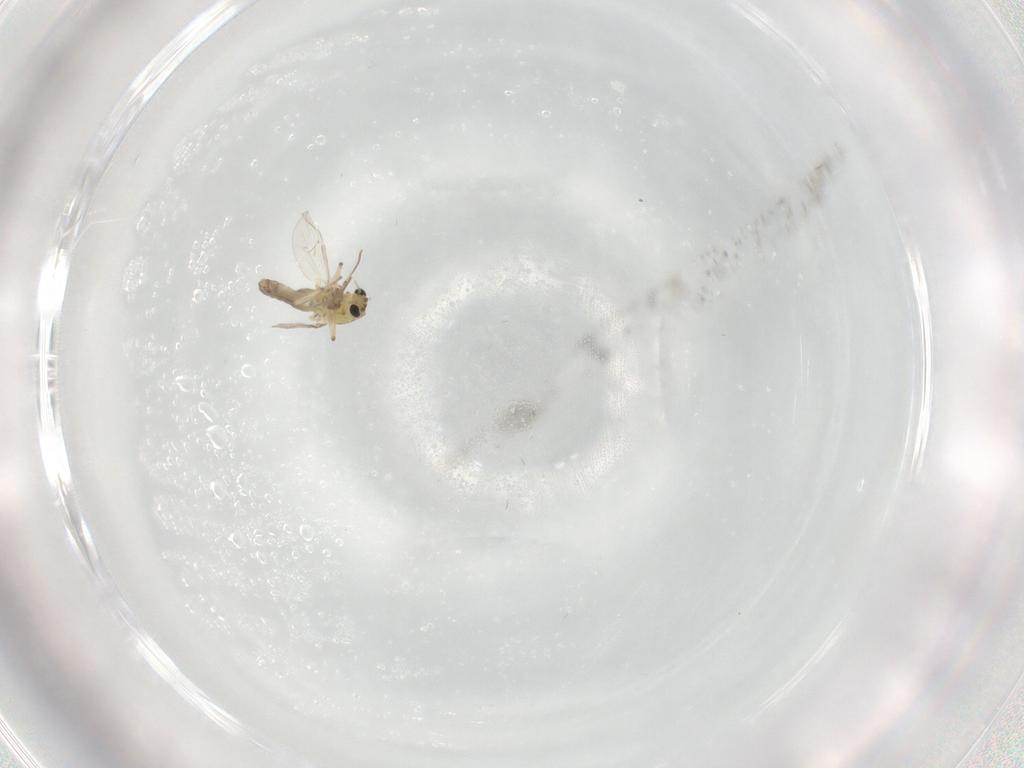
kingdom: Animalia
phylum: Arthropoda
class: Insecta
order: Diptera
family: Chironomidae
